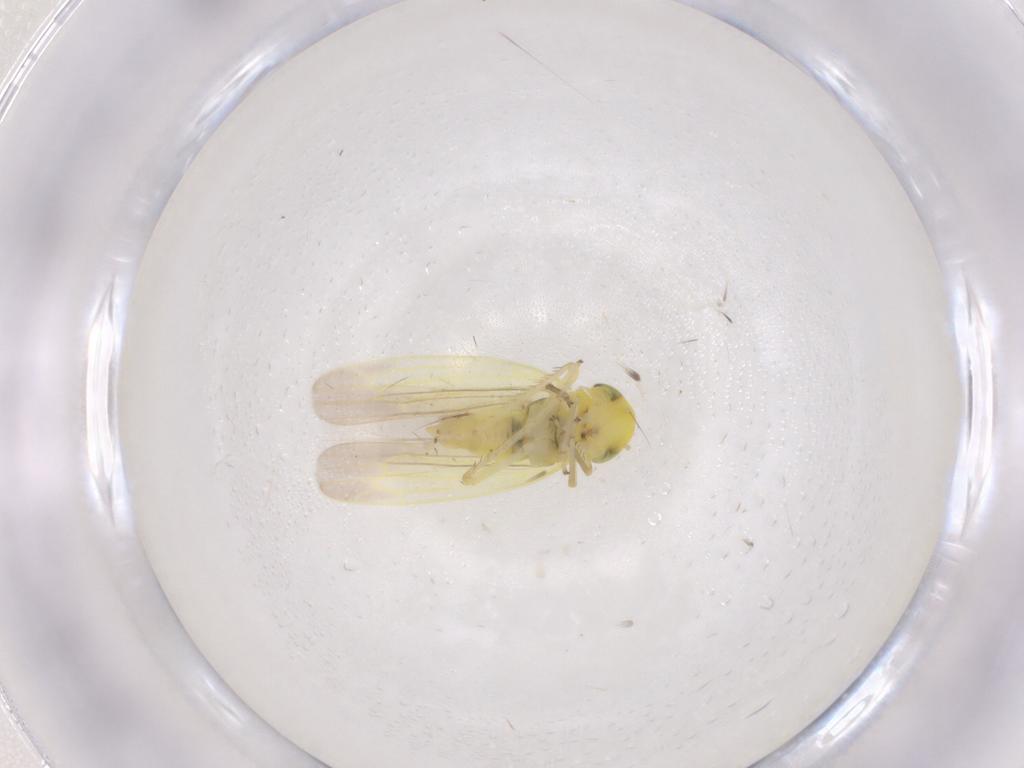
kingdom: Animalia
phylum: Arthropoda
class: Insecta
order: Hemiptera
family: Cicadellidae
